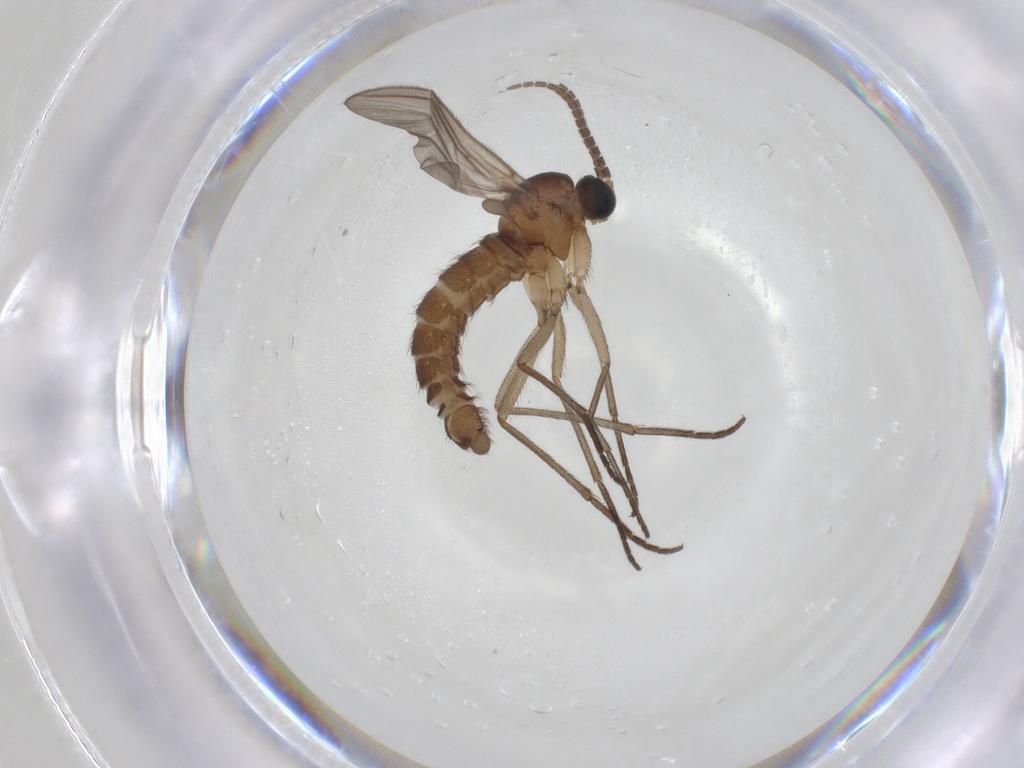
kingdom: Animalia
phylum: Arthropoda
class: Insecta
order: Diptera
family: Sciaridae
